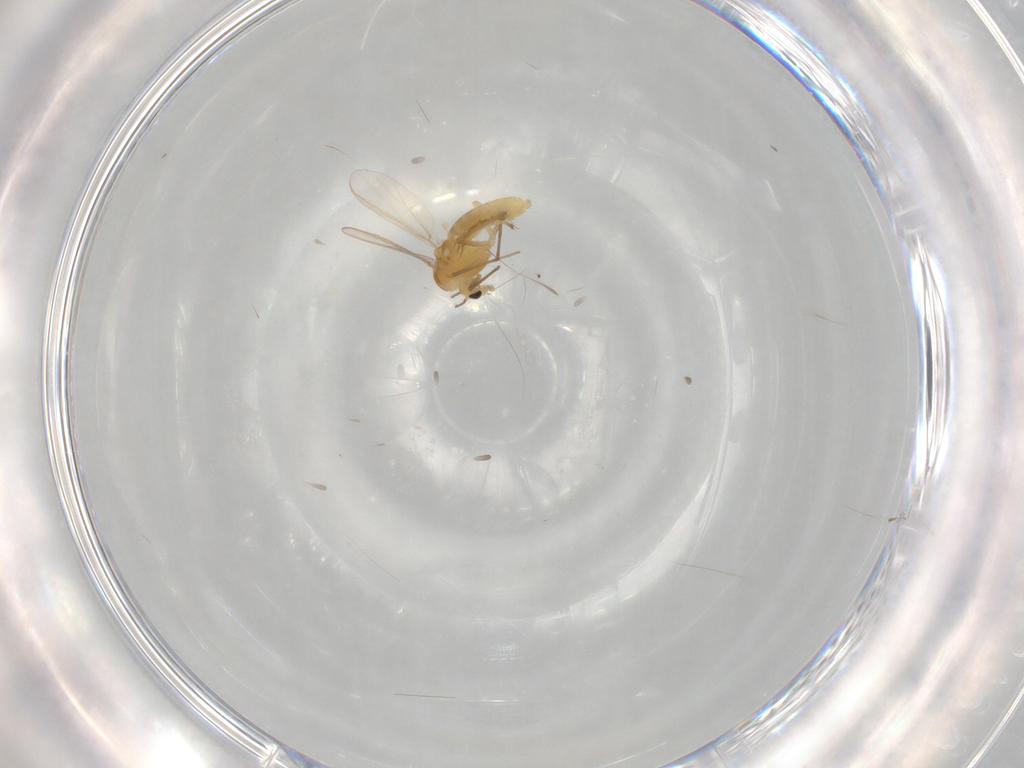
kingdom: Animalia
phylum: Arthropoda
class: Insecta
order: Diptera
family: Chironomidae
